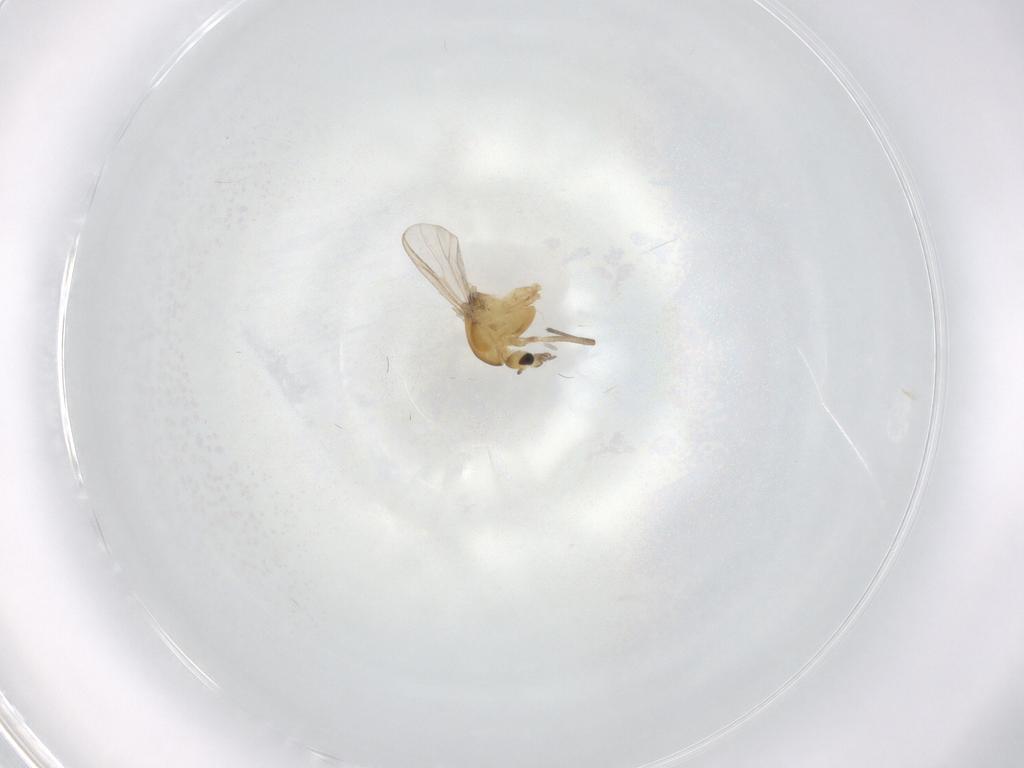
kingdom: Animalia
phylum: Arthropoda
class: Insecta
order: Diptera
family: Chironomidae
